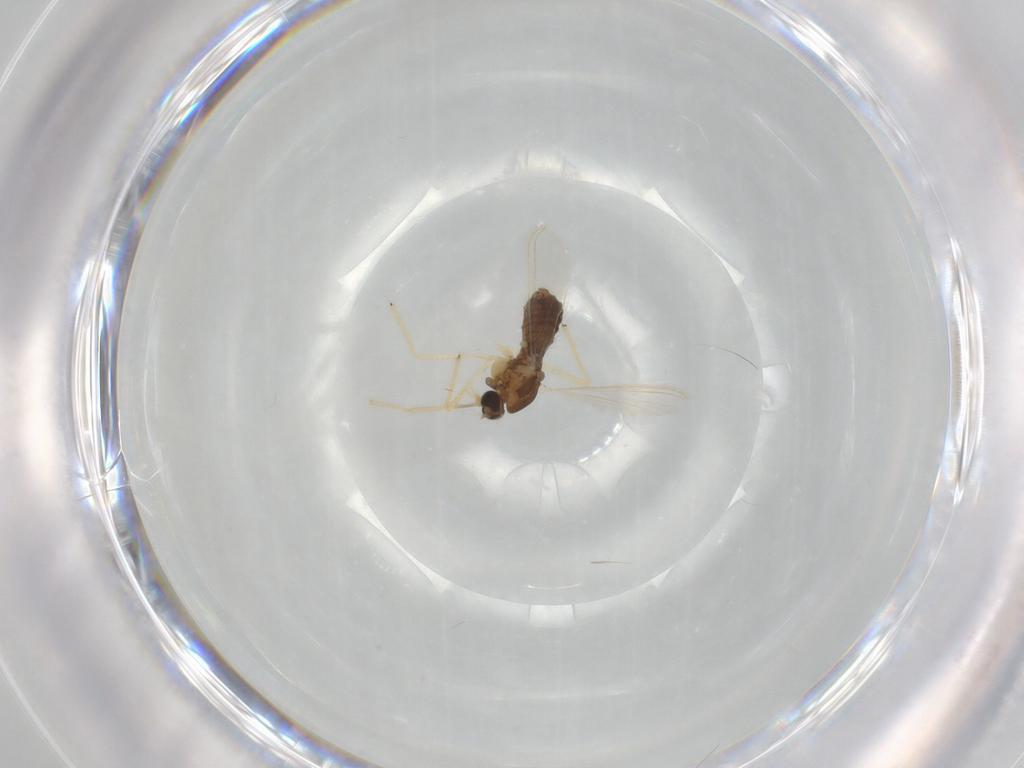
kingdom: Animalia
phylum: Arthropoda
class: Insecta
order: Diptera
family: Chironomidae
